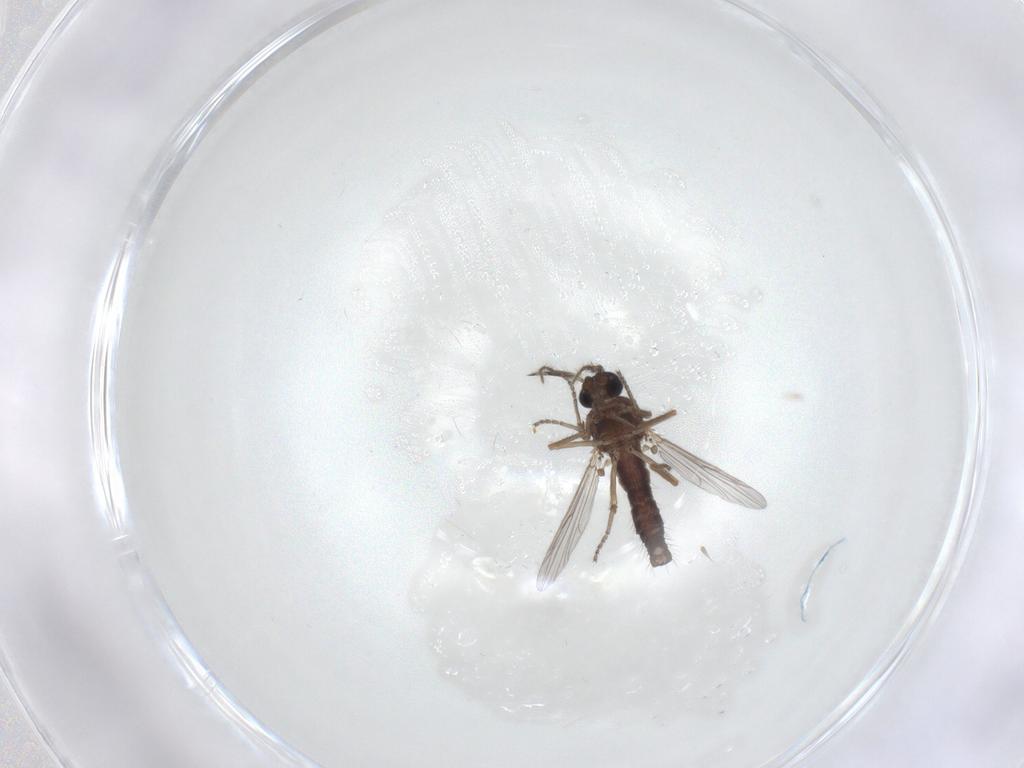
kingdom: Animalia
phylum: Arthropoda
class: Insecta
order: Diptera
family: Ceratopogonidae
